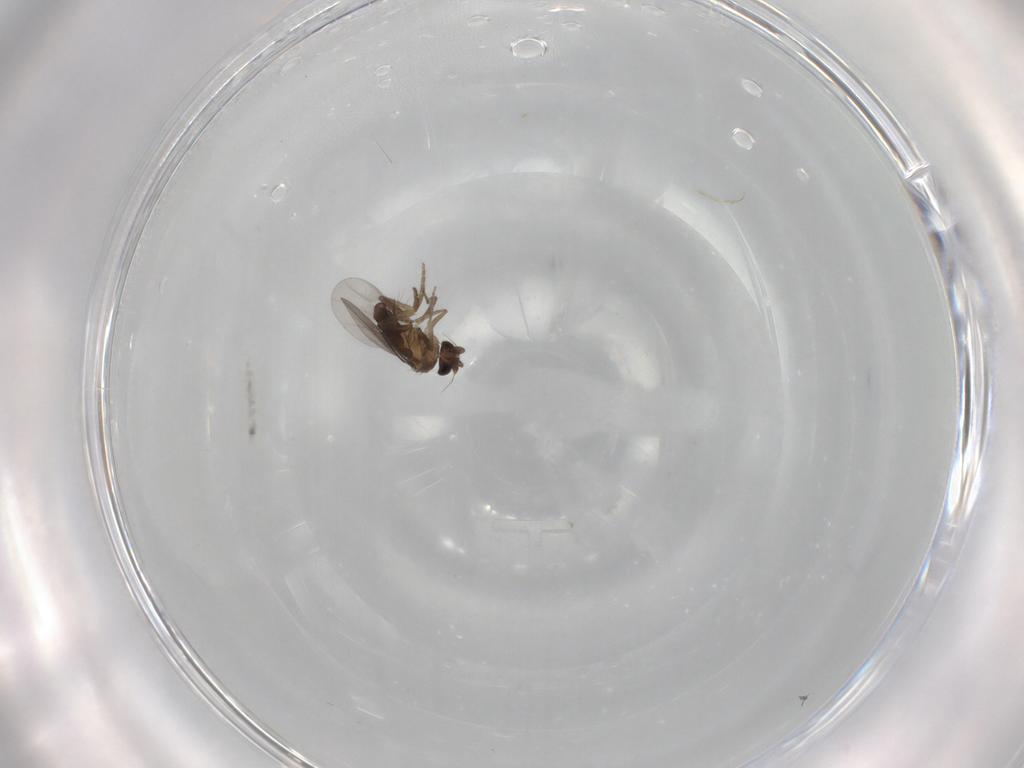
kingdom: Animalia
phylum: Arthropoda
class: Insecta
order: Diptera
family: Chironomidae
